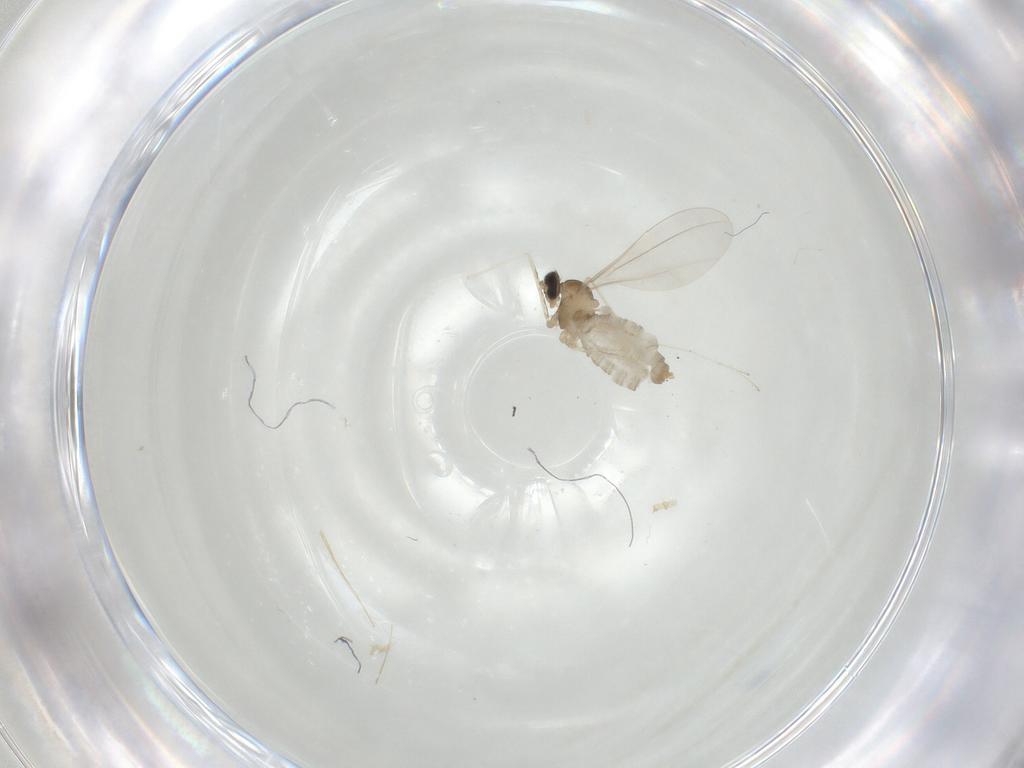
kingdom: Animalia
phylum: Arthropoda
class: Insecta
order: Diptera
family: Cecidomyiidae
